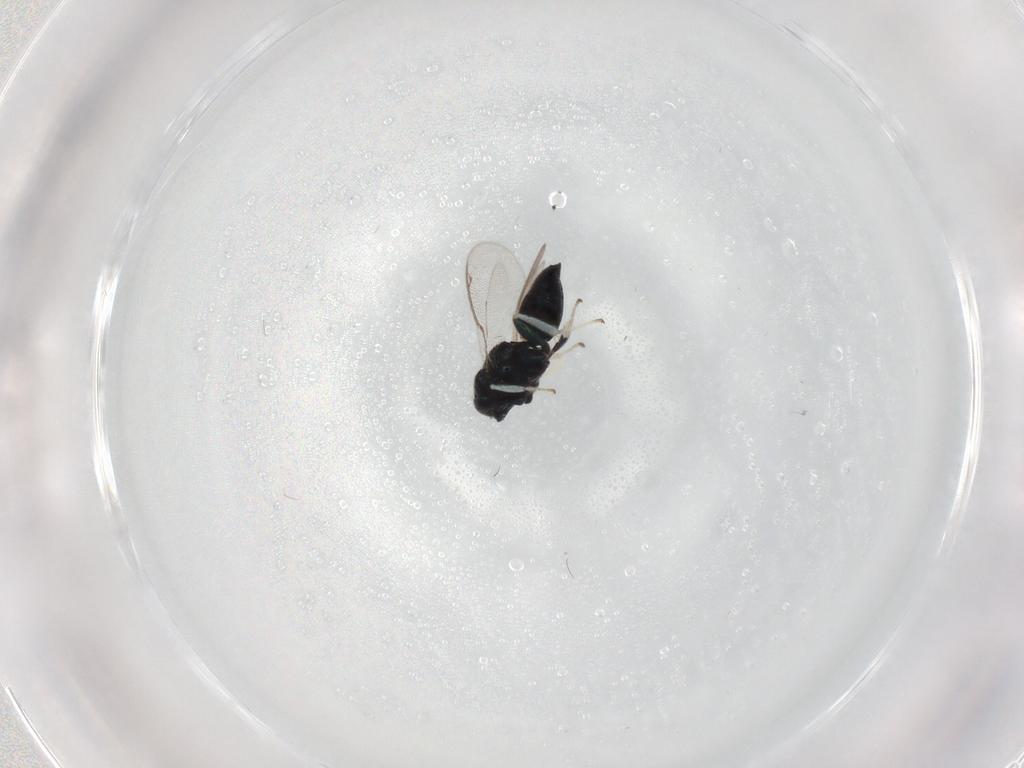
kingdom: Animalia
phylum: Arthropoda
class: Insecta
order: Hymenoptera
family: Herbertiidae
